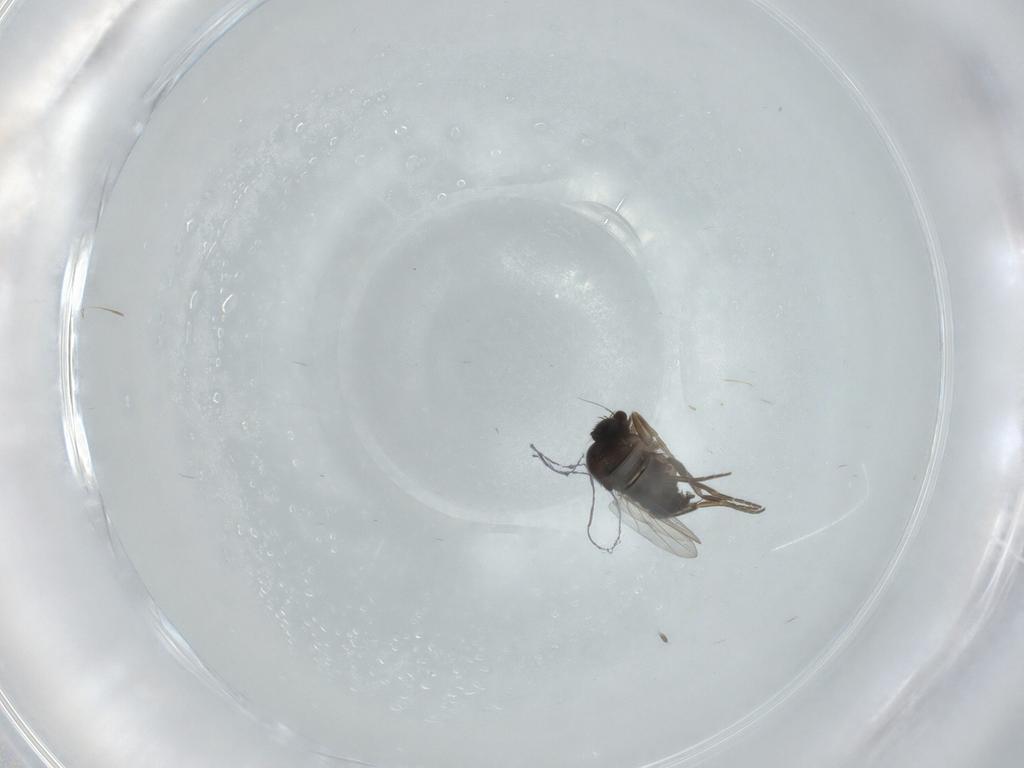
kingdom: Animalia
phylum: Arthropoda
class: Insecta
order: Diptera
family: Phoridae
